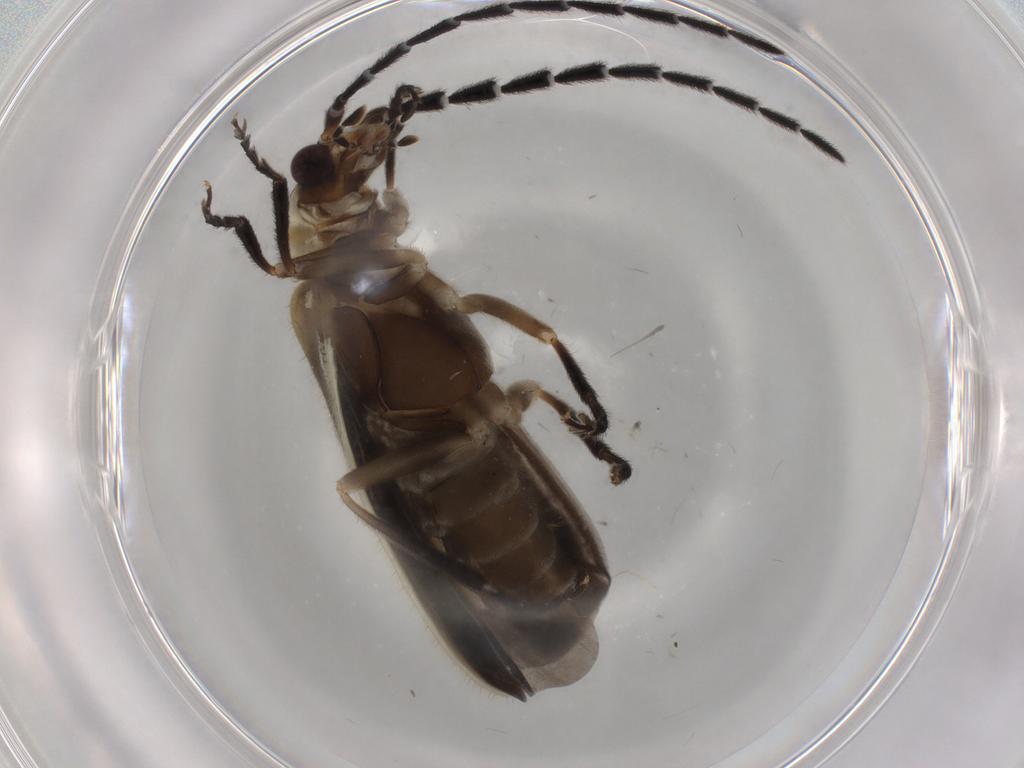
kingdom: Animalia
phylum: Arthropoda
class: Insecta
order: Coleoptera
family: Cantharidae
